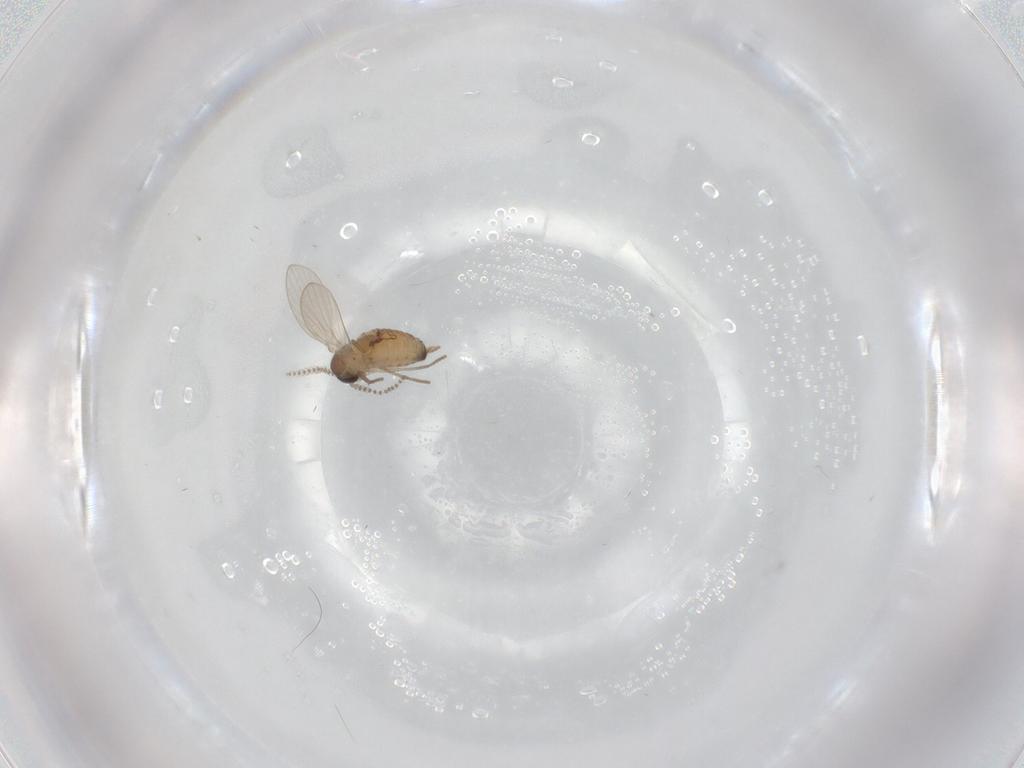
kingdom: Animalia
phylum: Arthropoda
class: Insecta
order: Diptera
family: Psychodidae
